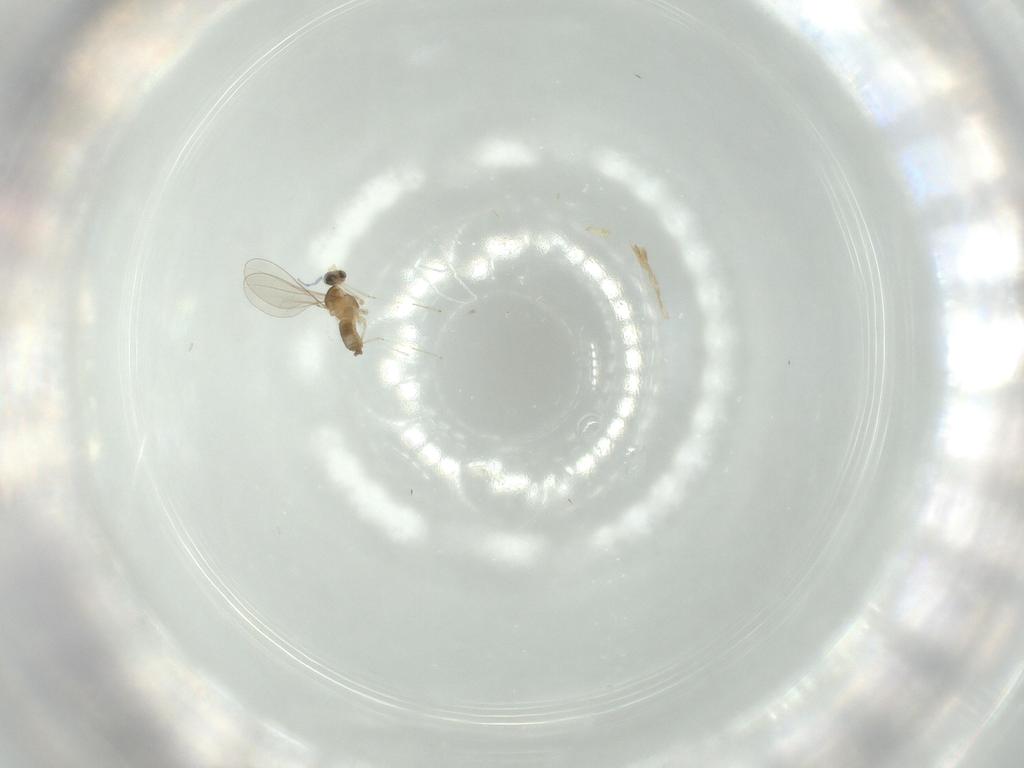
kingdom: Animalia
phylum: Arthropoda
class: Insecta
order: Diptera
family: Cecidomyiidae
